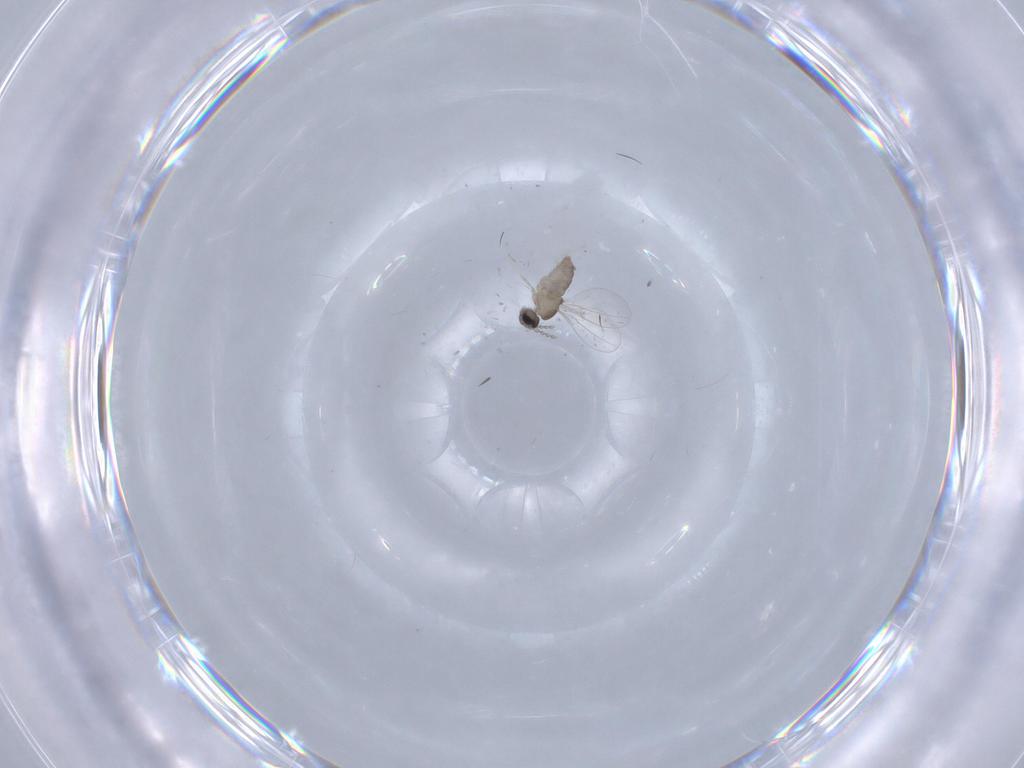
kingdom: Animalia
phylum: Arthropoda
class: Insecta
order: Diptera
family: Cecidomyiidae
